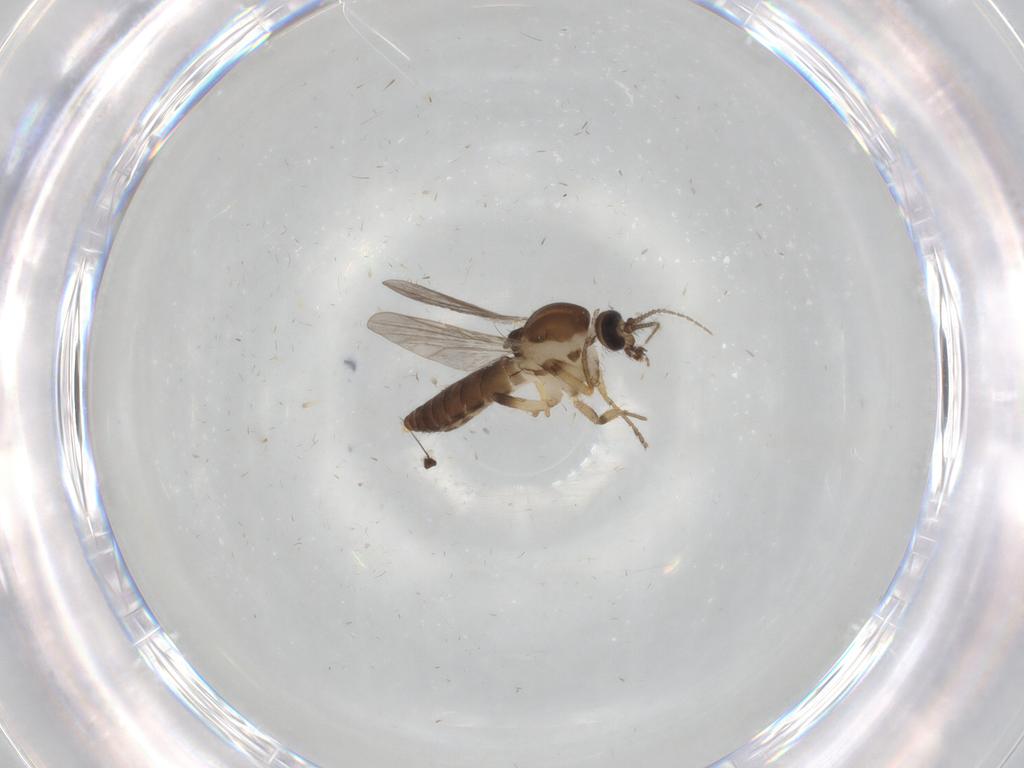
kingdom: Animalia
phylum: Arthropoda
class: Insecta
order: Diptera
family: Ceratopogonidae
